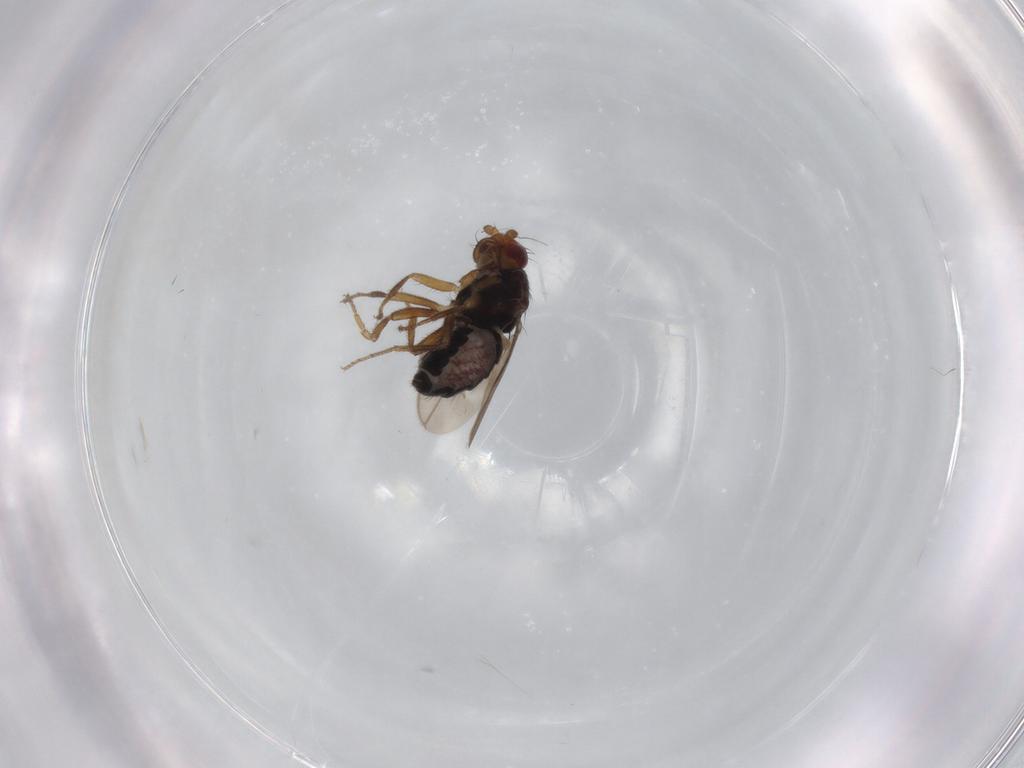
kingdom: Animalia
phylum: Arthropoda
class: Insecta
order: Diptera
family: Sphaeroceridae
